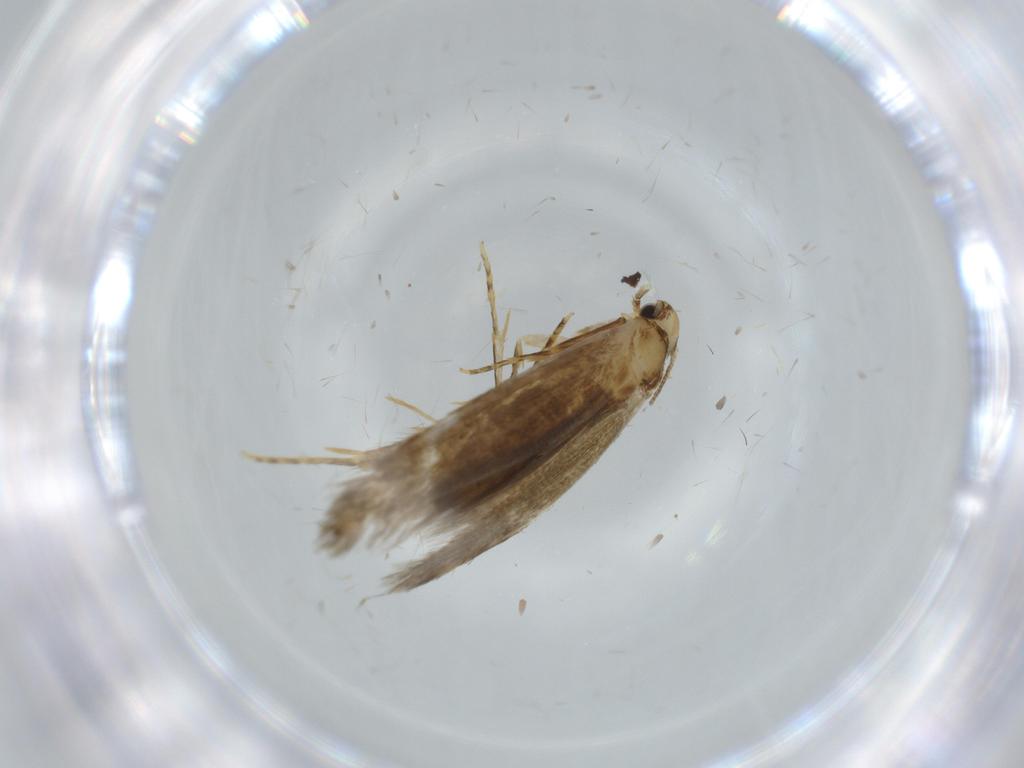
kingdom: Animalia
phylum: Arthropoda
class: Insecta
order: Lepidoptera
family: Tineidae
